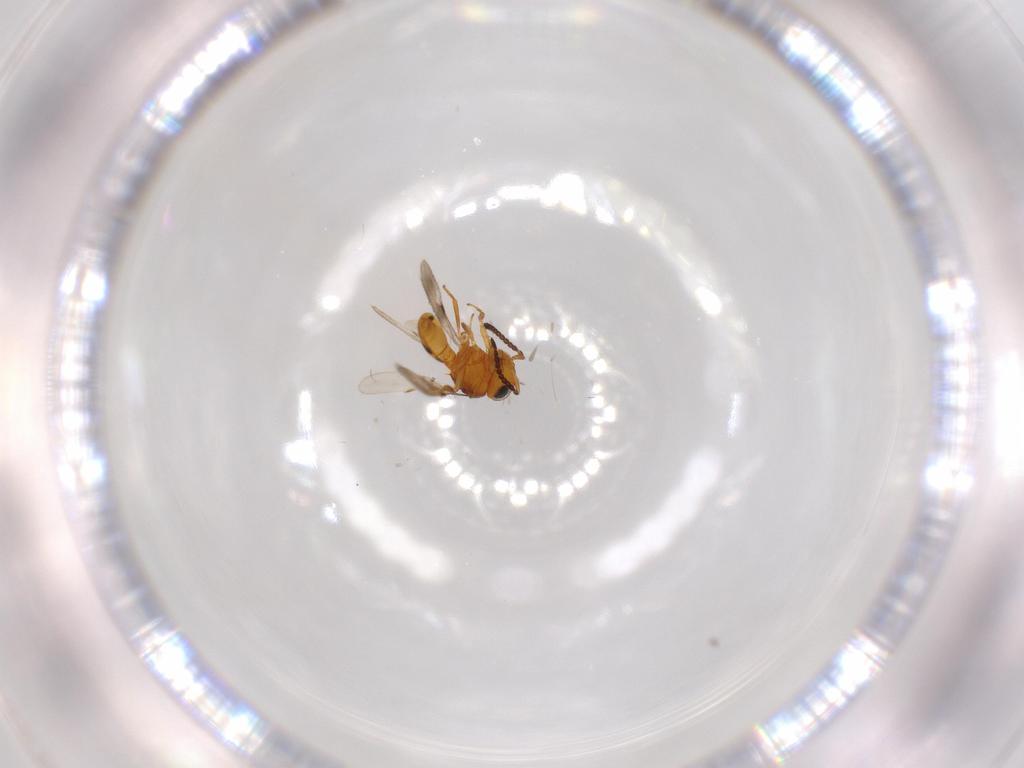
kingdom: Animalia
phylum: Arthropoda
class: Insecta
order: Hymenoptera
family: Scelionidae
